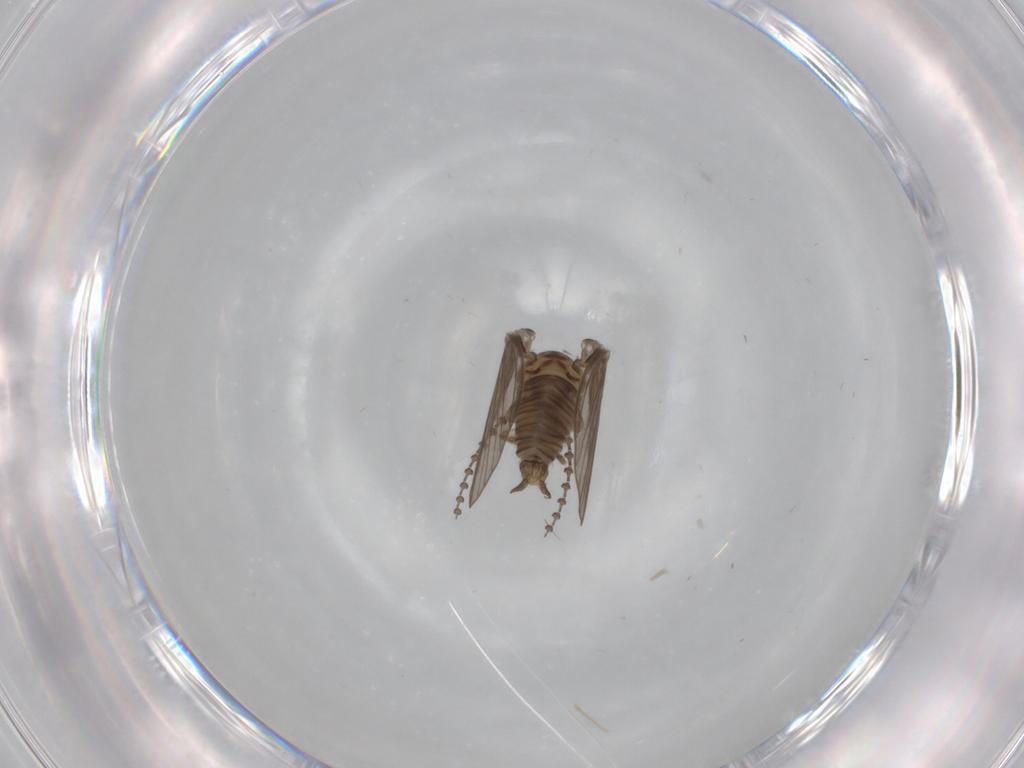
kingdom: Animalia
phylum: Arthropoda
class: Insecta
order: Diptera
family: Psychodidae
